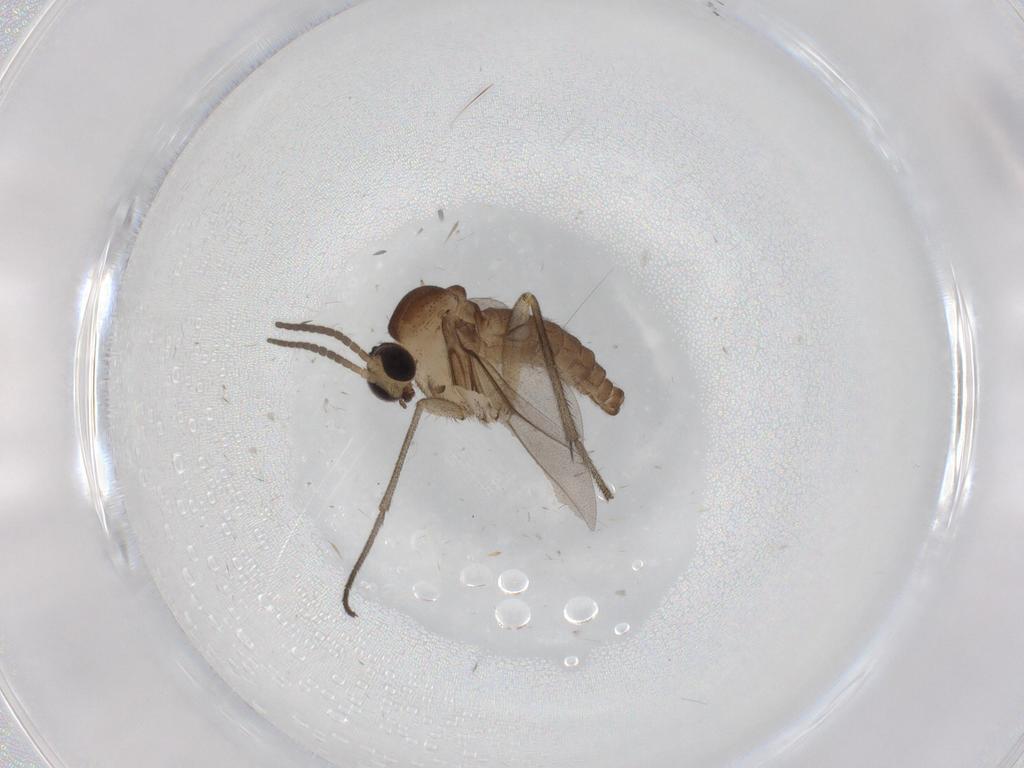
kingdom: Animalia
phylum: Arthropoda
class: Insecta
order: Diptera
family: Diadocidiidae
